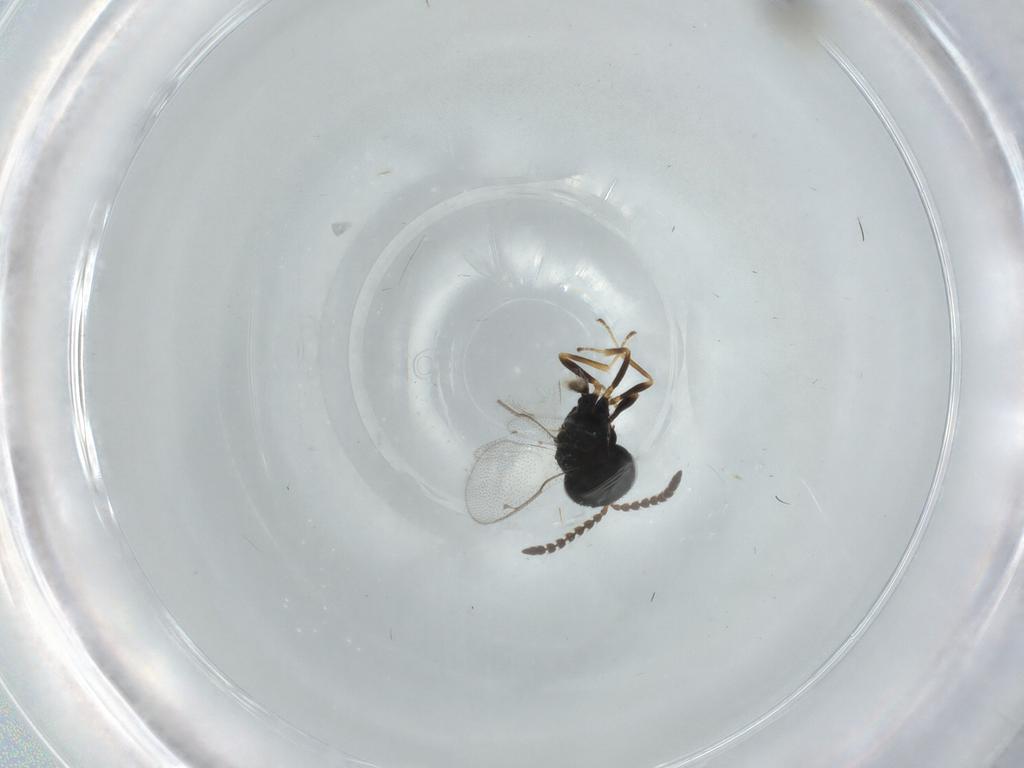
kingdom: Animalia
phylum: Arthropoda
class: Insecta
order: Hymenoptera
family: Pteromalidae
